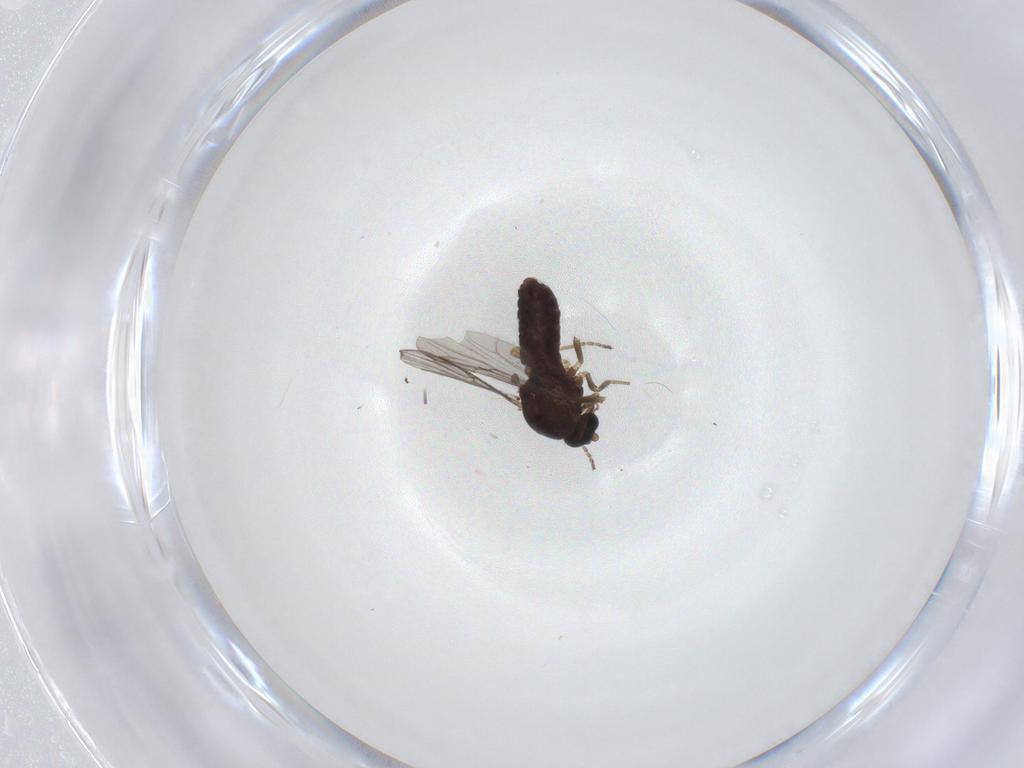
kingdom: Animalia
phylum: Arthropoda
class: Insecta
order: Diptera
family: Ceratopogonidae
